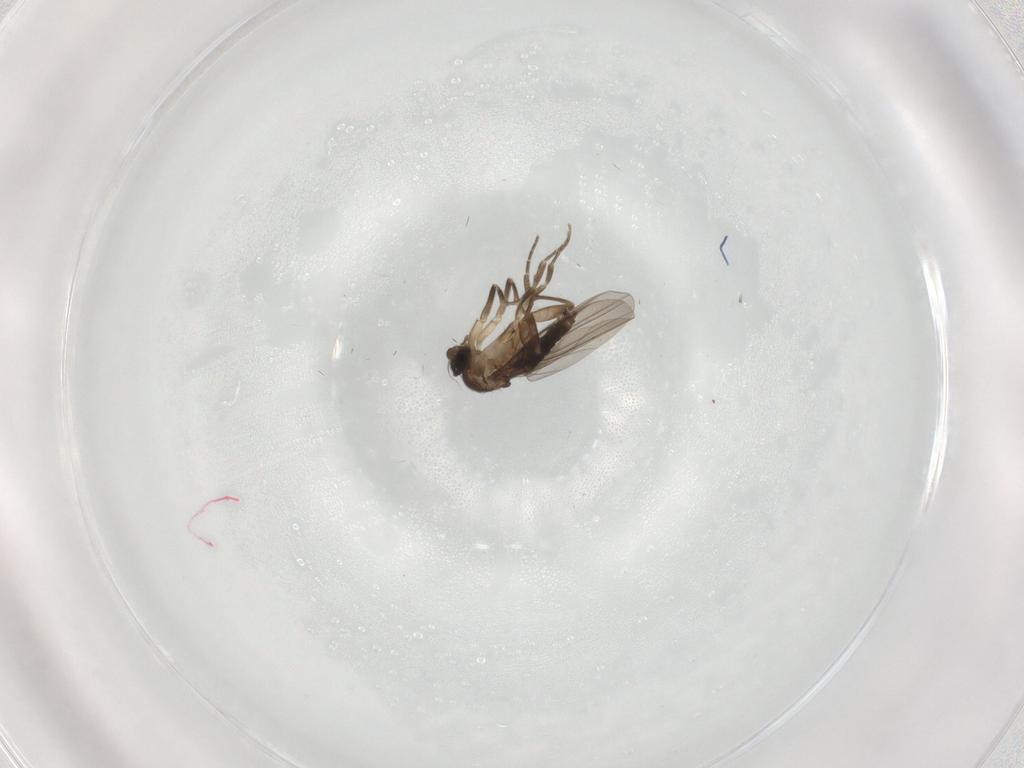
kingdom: Animalia
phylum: Arthropoda
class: Insecta
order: Diptera
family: Phoridae
